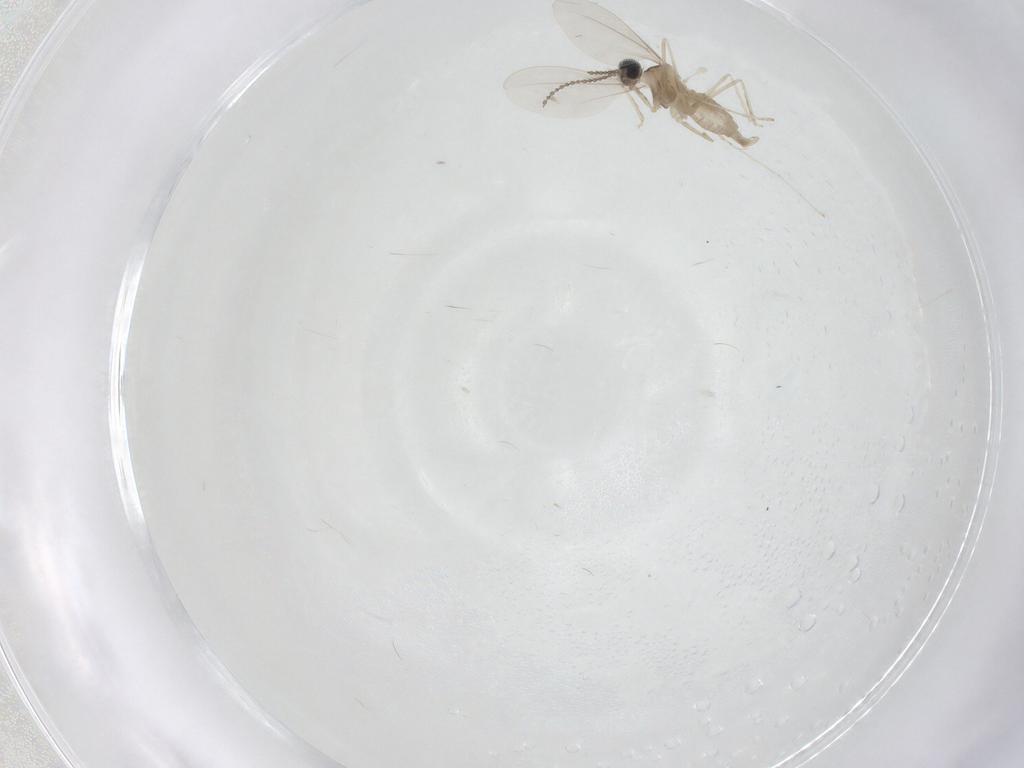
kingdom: Animalia
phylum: Arthropoda
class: Insecta
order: Diptera
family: Cecidomyiidae
